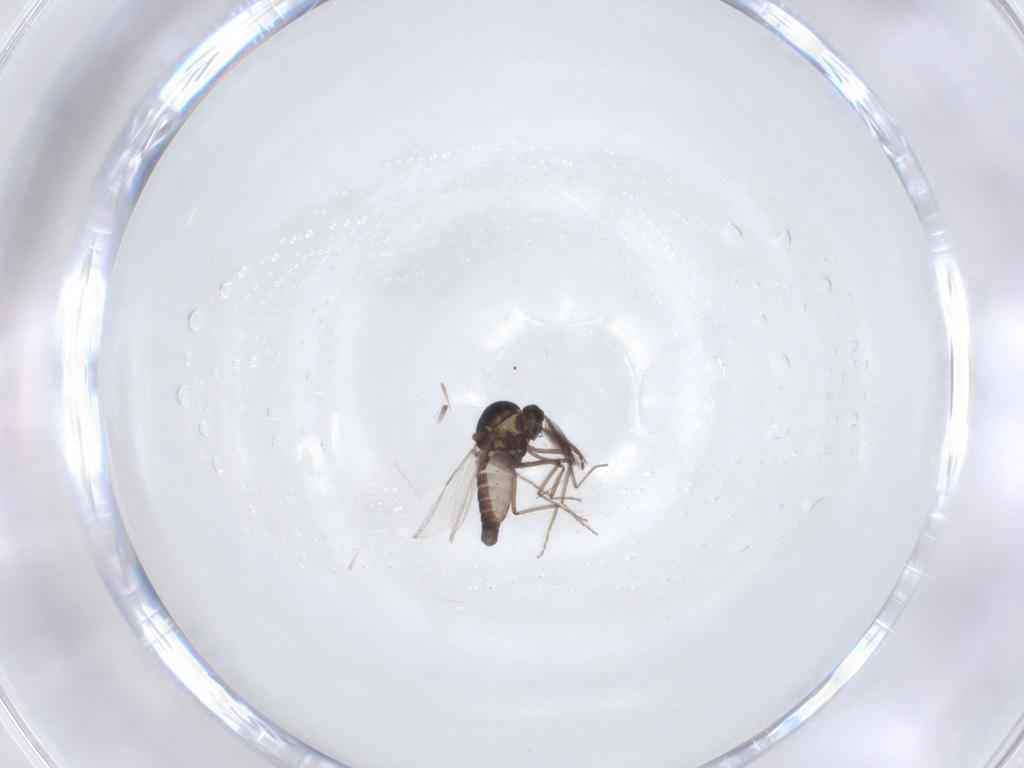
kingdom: Animalia
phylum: Arthropoda
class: Insecta
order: Diptera
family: Ceratopogonidae
